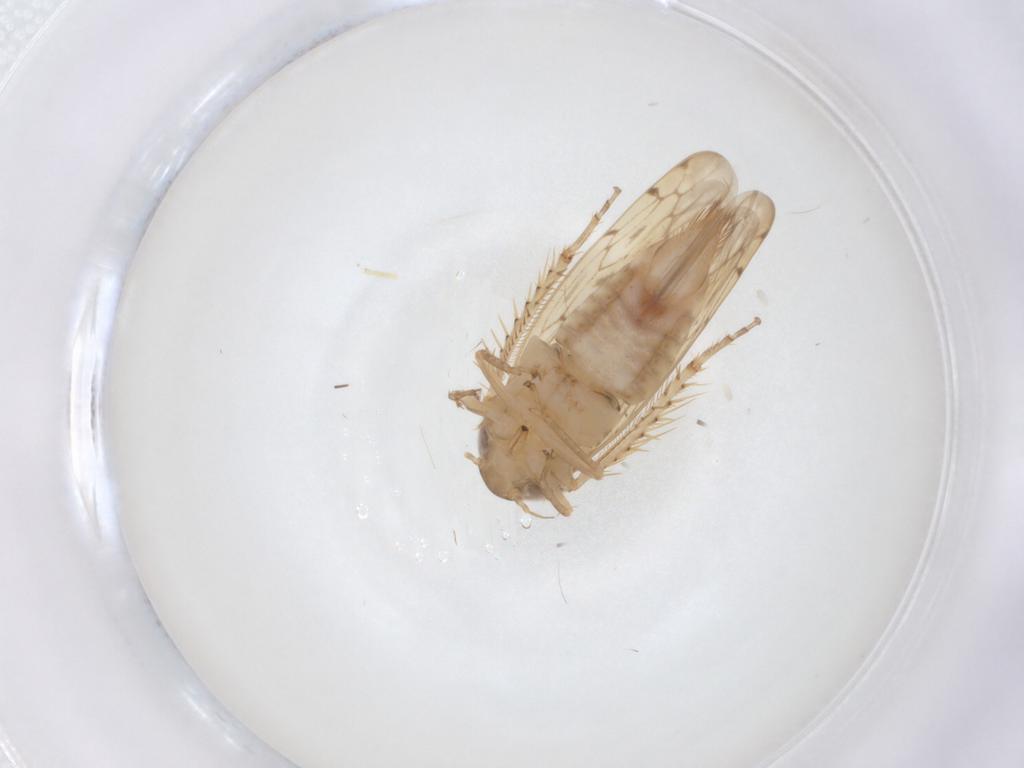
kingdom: Animalia
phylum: Arthropoda
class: Insecta
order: Hemiptera
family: Cicadellidae
